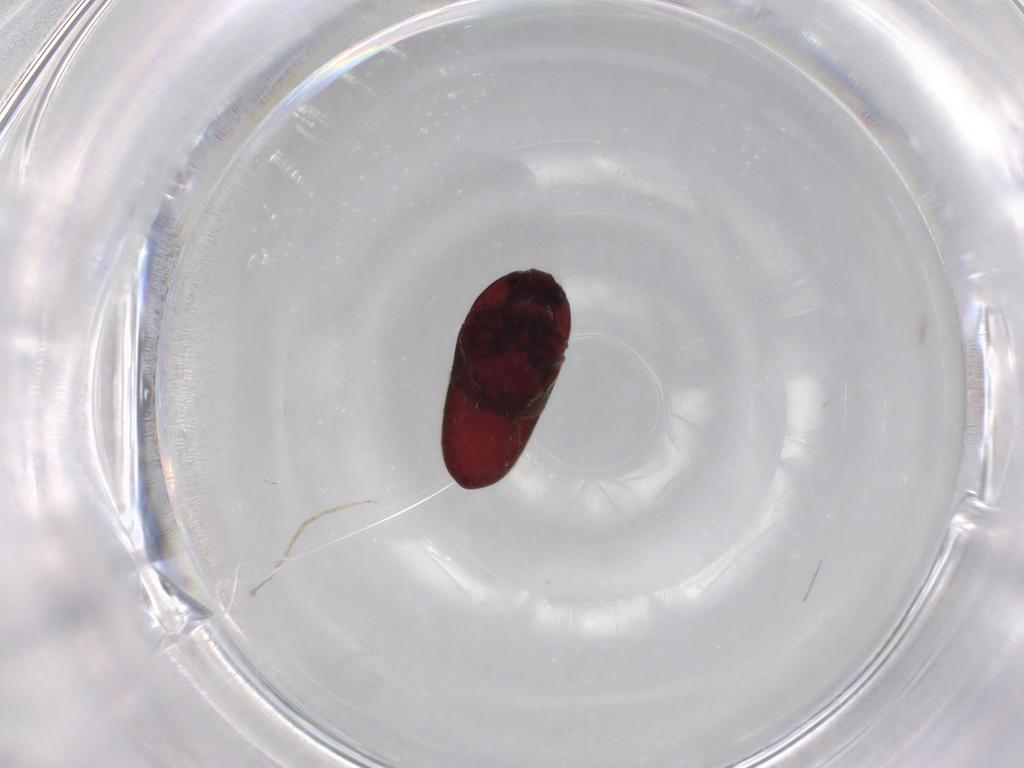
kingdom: Animalia
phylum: Arthropoda
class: Insecta
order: Coleoptera
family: Throscidae
